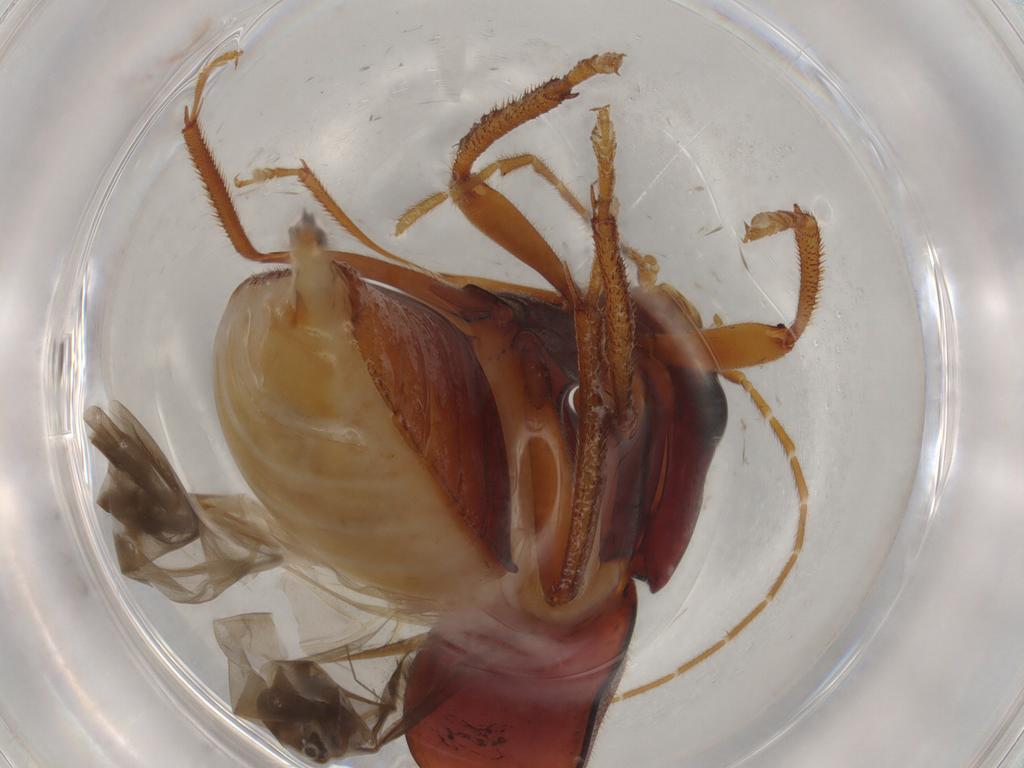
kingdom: Animalia
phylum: Arthropoda
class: Insecta
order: Coleoptera
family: Ptilodactylidae
